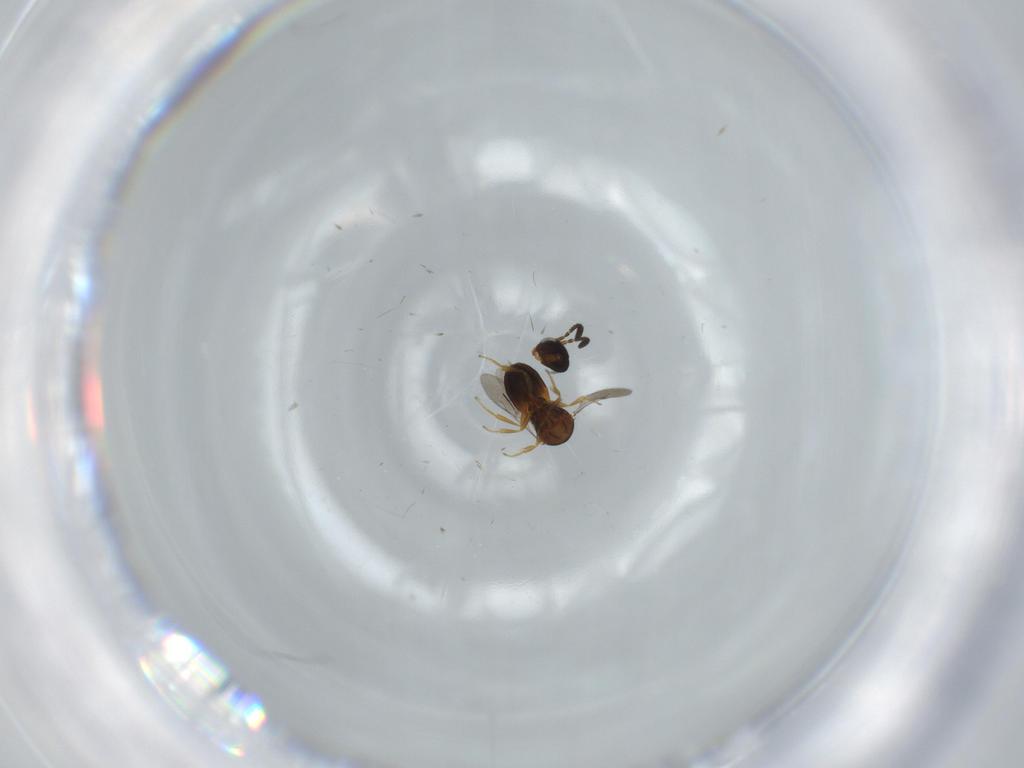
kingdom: Animalia
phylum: Arthropoda
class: Insecta
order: Hymenoptera
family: Scelionidae
